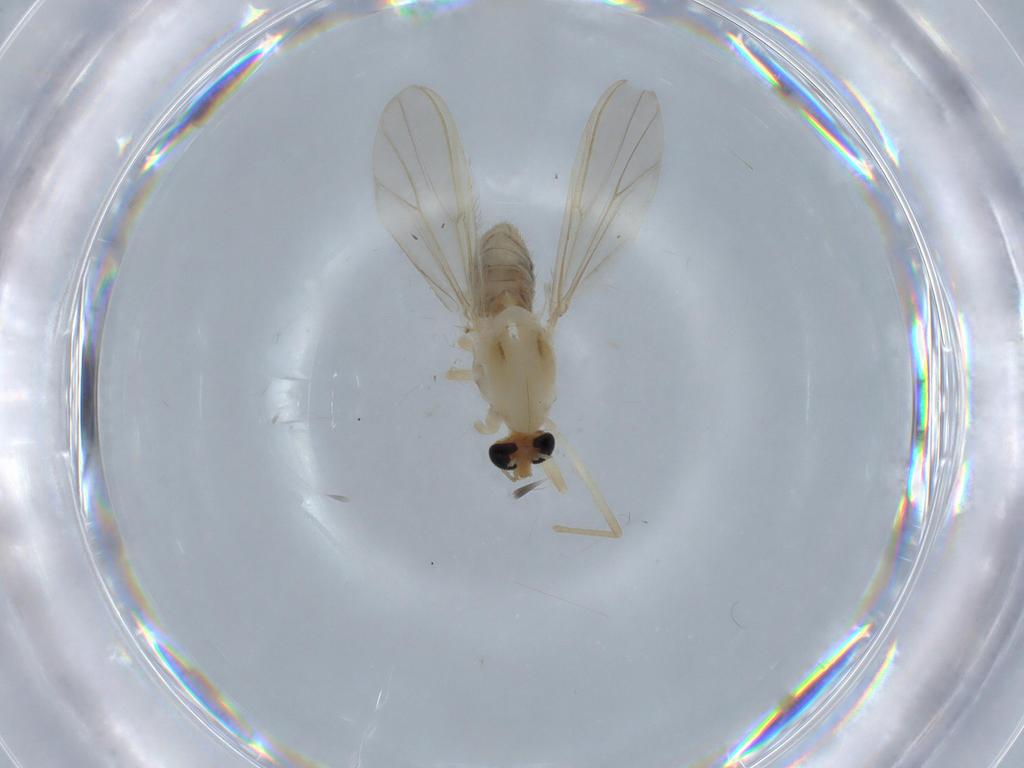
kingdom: Animalia
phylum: Arthropoda
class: Insecta
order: Diptera
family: Chironomidae
